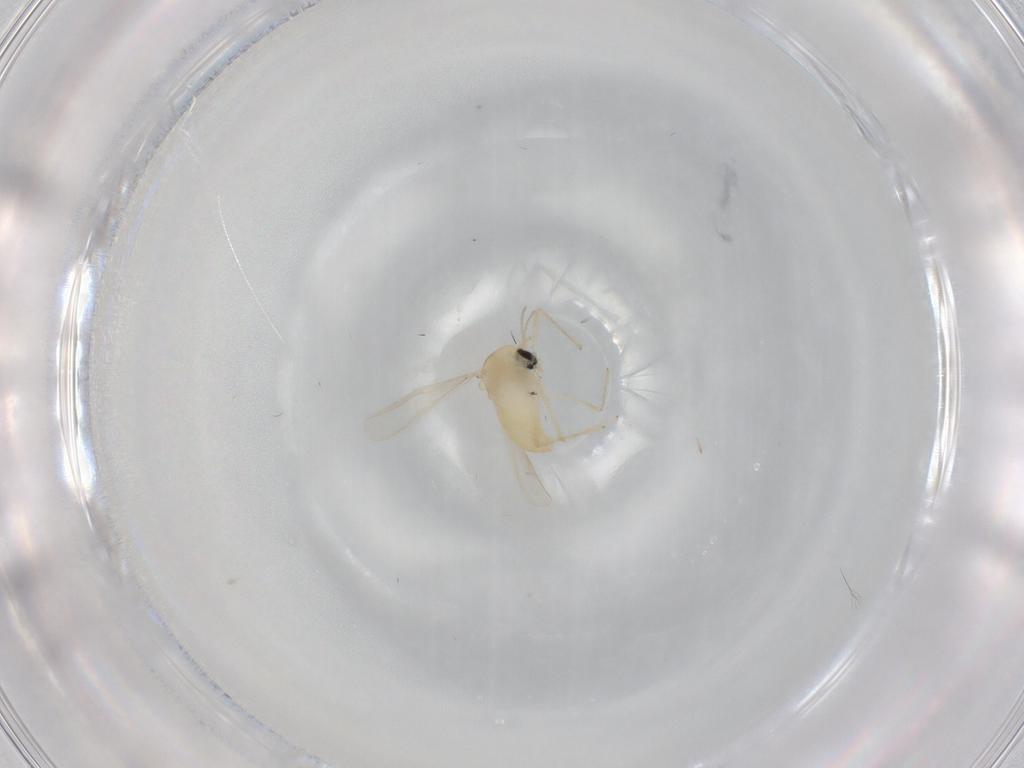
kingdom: Animalia
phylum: Arthropoda
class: Insecta
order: Diptera
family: Chironomidae
